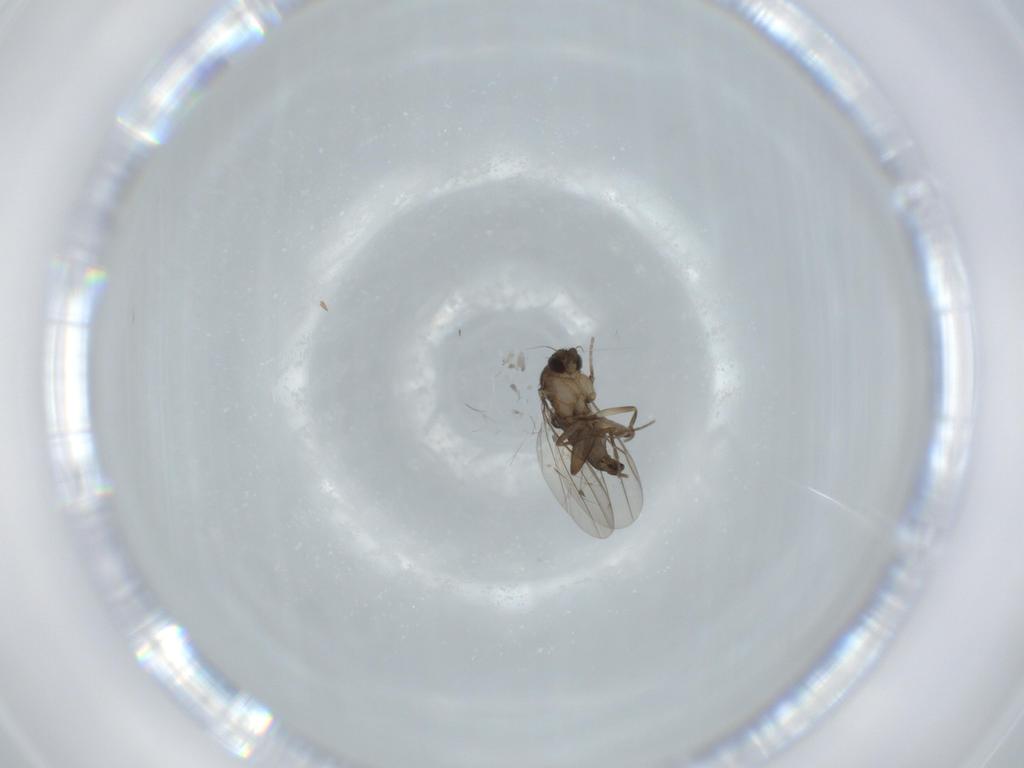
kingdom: Animalia
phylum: Arthropoda
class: Insecta
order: Diptera
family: Phoridae
